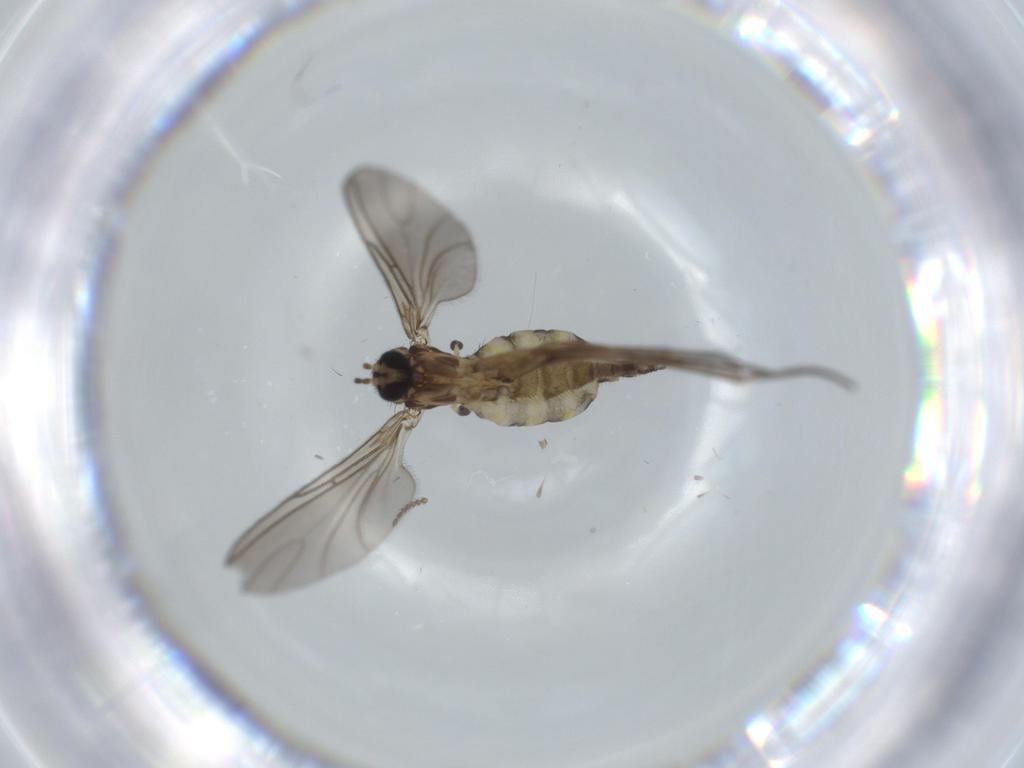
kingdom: Animalia
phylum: Arthropoda
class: Insecta
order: Diptera
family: Sciaridae
